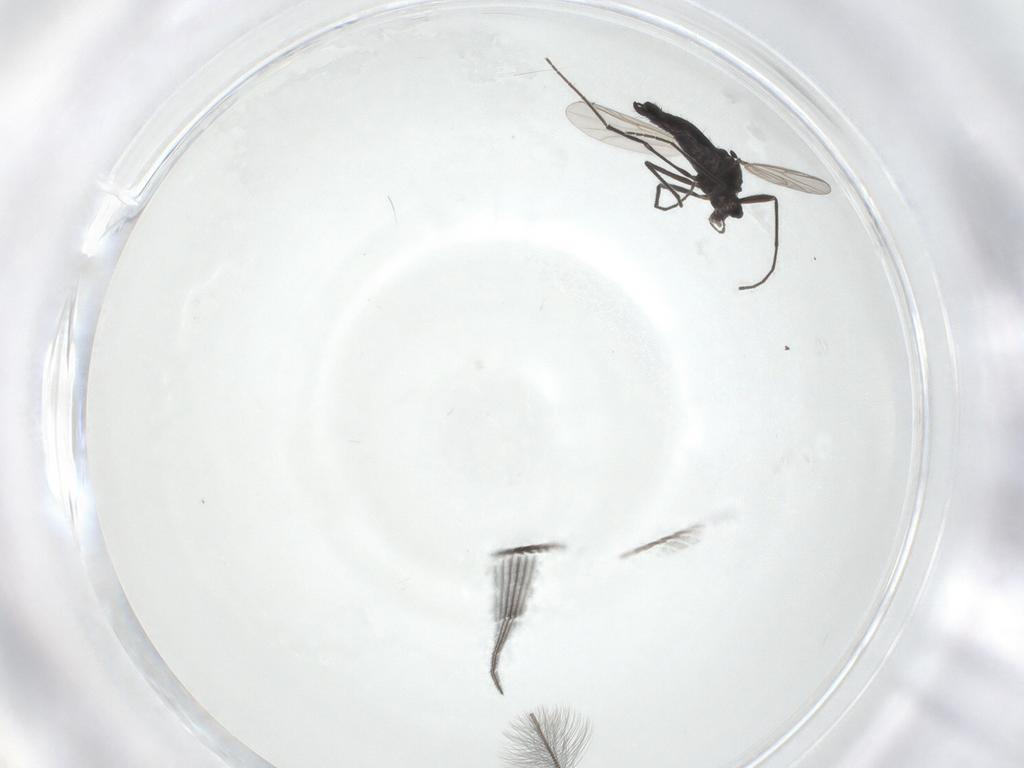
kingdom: Animalia
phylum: Arthropoda
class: Insecta
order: Diptera
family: Chironomidae
